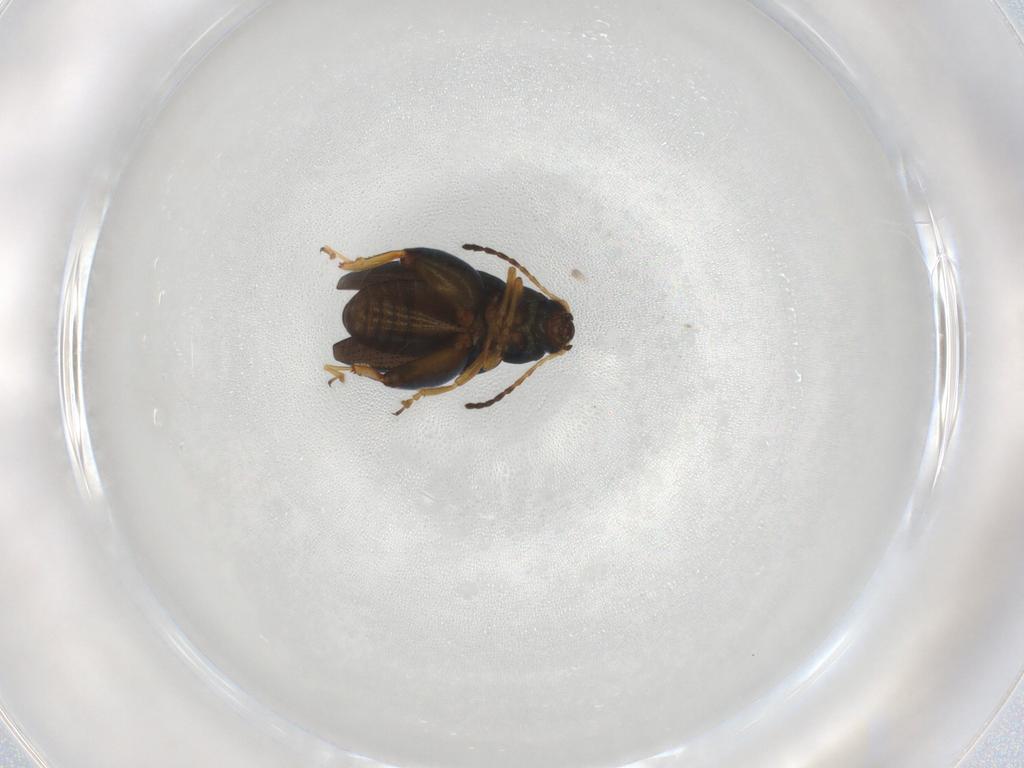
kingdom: Animalia
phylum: Arthropoda
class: Insecta
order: Coleoptera
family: Chrysomelidae
